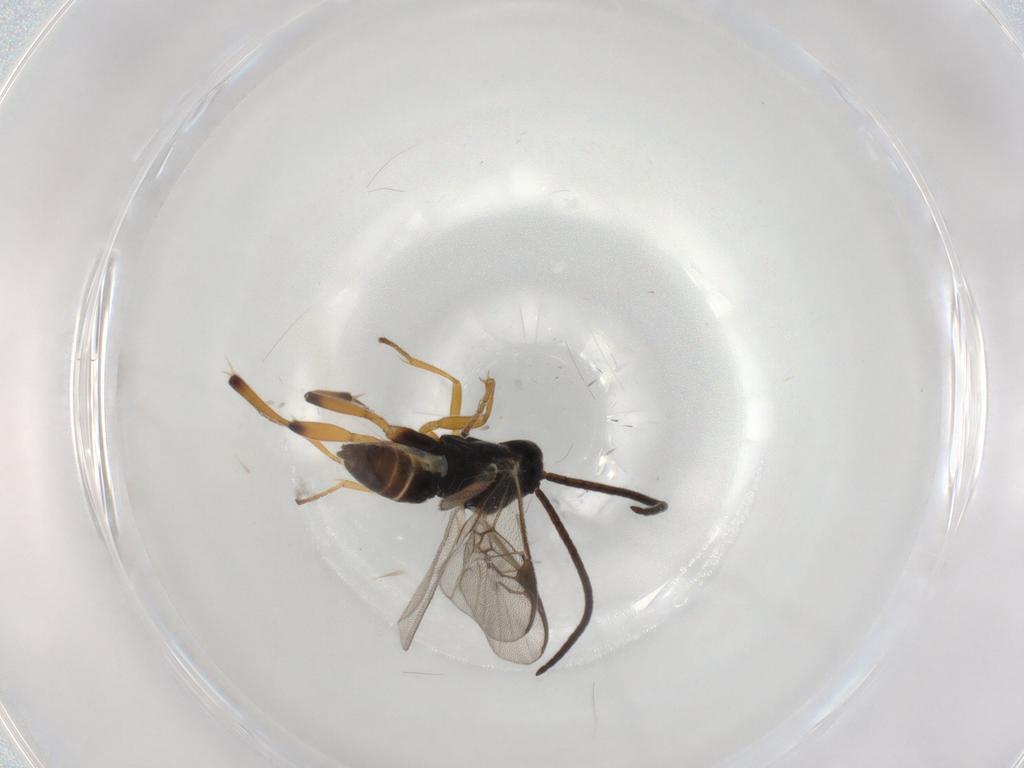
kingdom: Animalia
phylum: Arthropoda
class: Insecta
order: Hymenoptera
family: Braconidae
